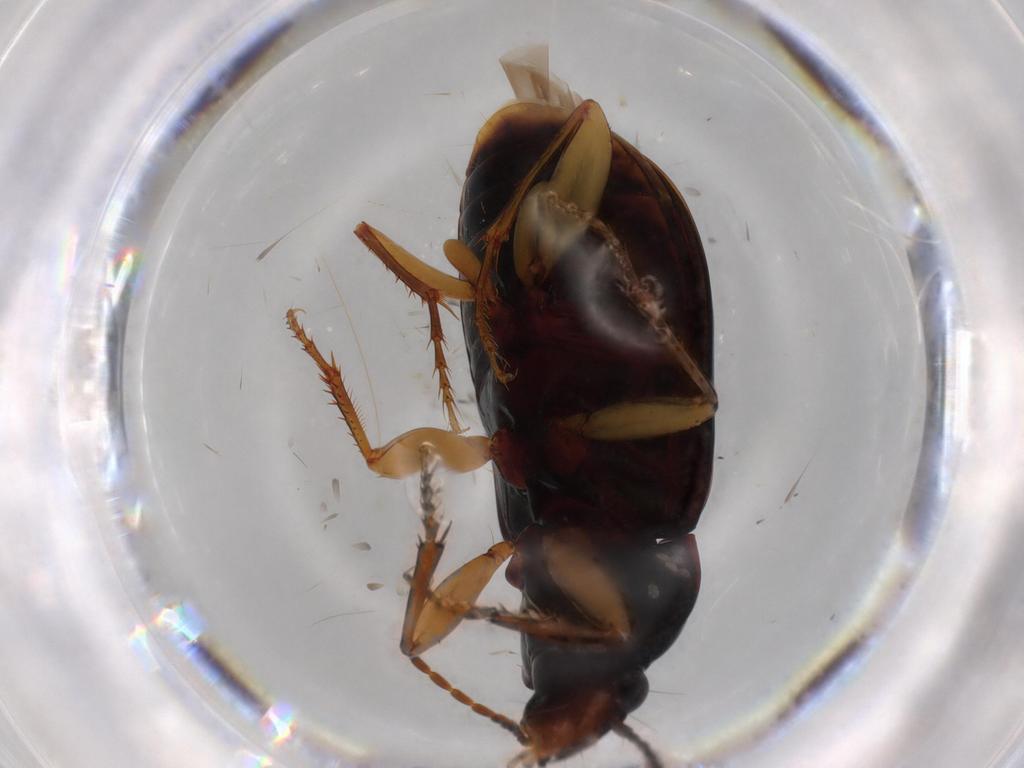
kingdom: Animalia
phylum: Arthropoda
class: Insecta
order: Coleoptera
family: Carabidae
